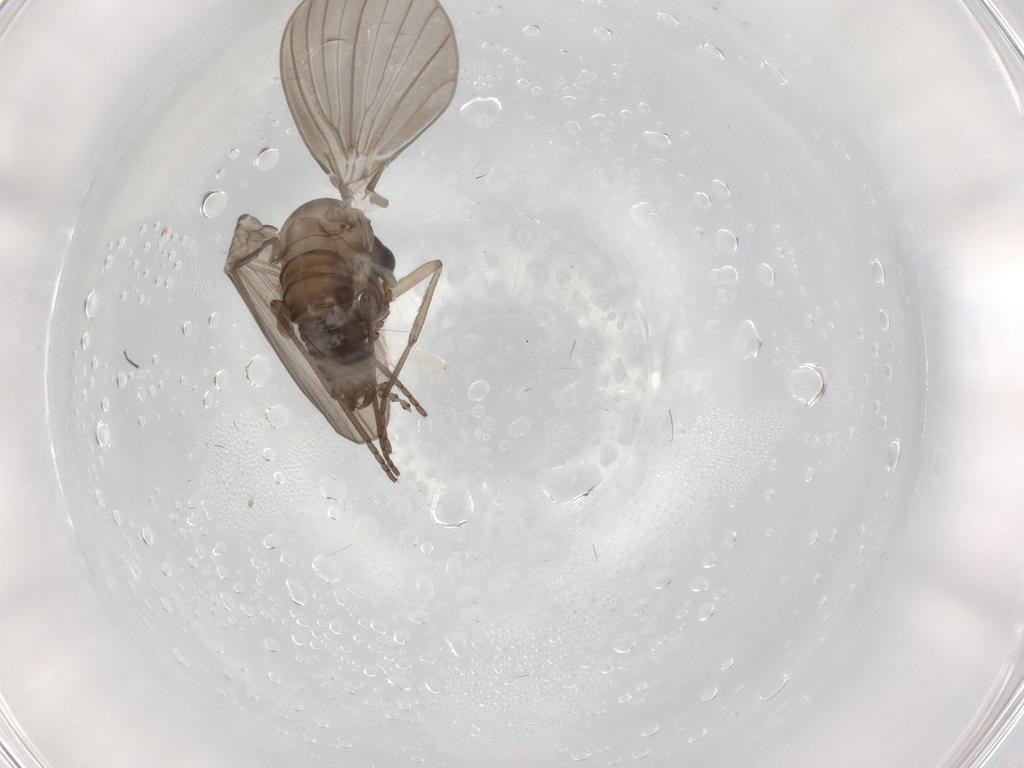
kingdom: Animalia
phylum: Arthropoda
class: Insecta
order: Diptera
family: Psychodidae
